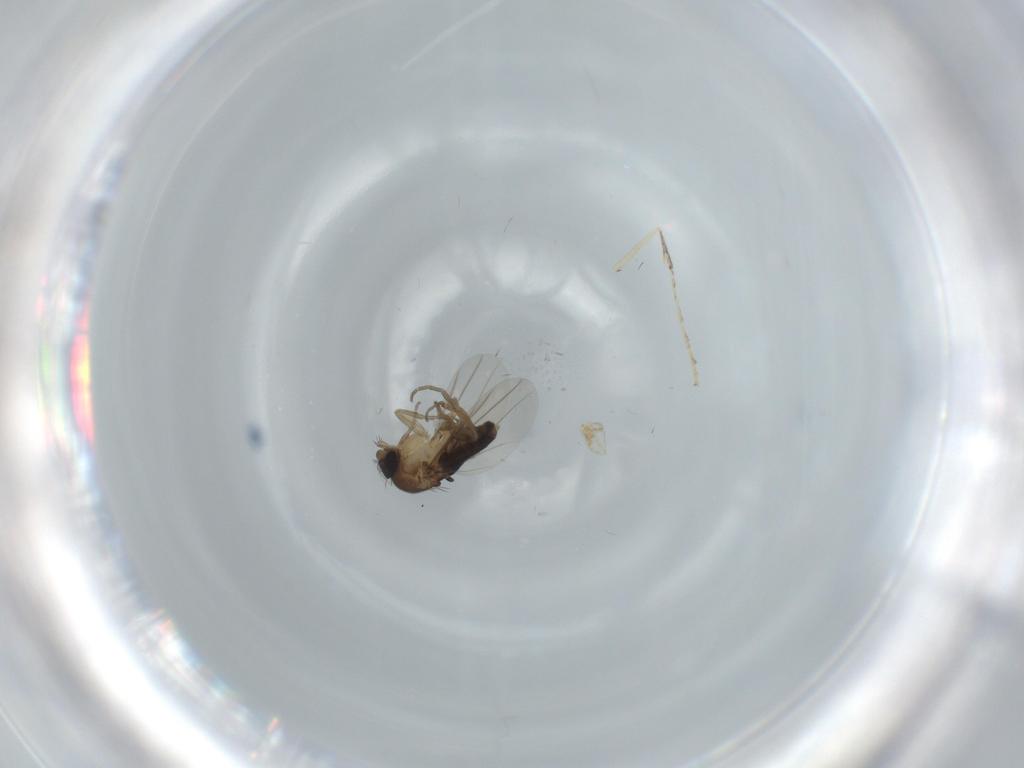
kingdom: Animalia
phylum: Arthropoda
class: Insecta
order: Diptera
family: Phoridae
